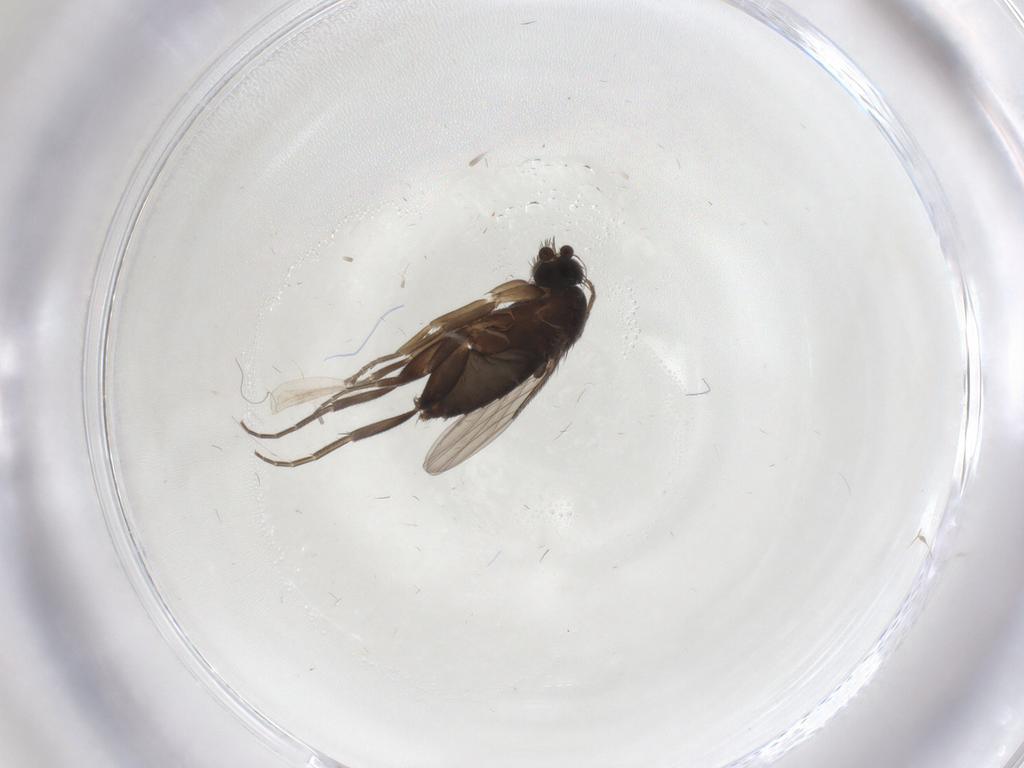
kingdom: Animalia
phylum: Arthropoda
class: Insecta
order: Diptera
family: Phoridae
